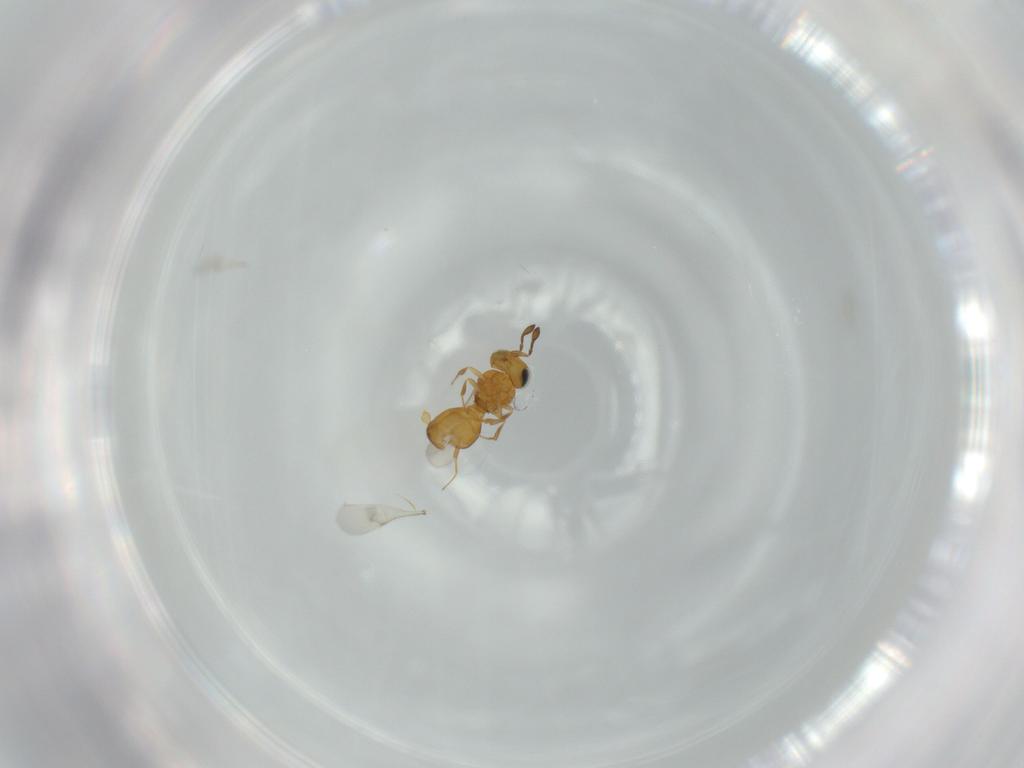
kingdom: Animalia
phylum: Arthropoda
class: Insecta
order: Hymenoptera
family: Scelionidae
